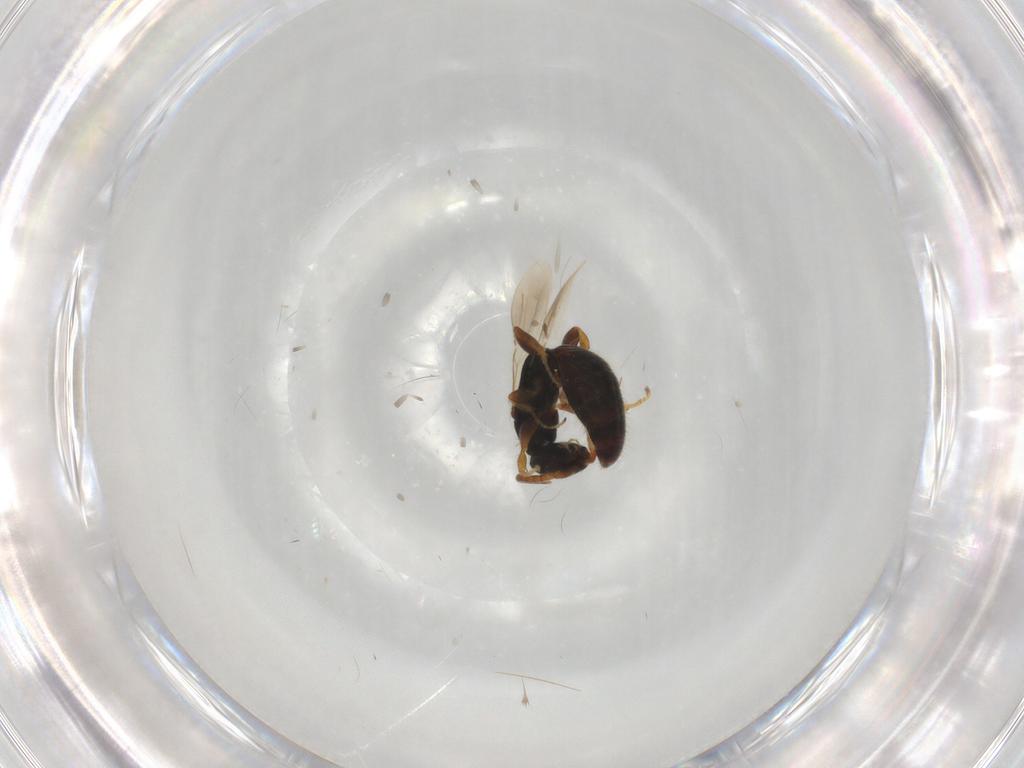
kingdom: Animalia
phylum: Arthropoda
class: Insecta
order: Hymenoptera
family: Bethylidae
